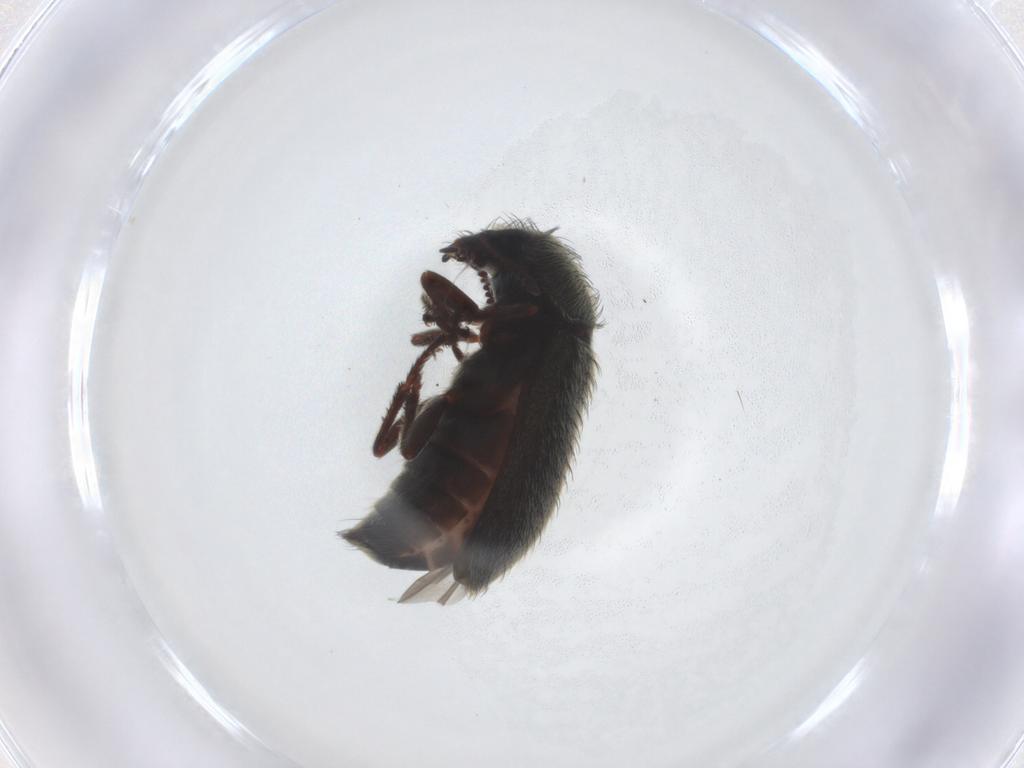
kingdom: Animalia
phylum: Arthropoda
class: Insecta
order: Coleoptera
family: Melyridae
